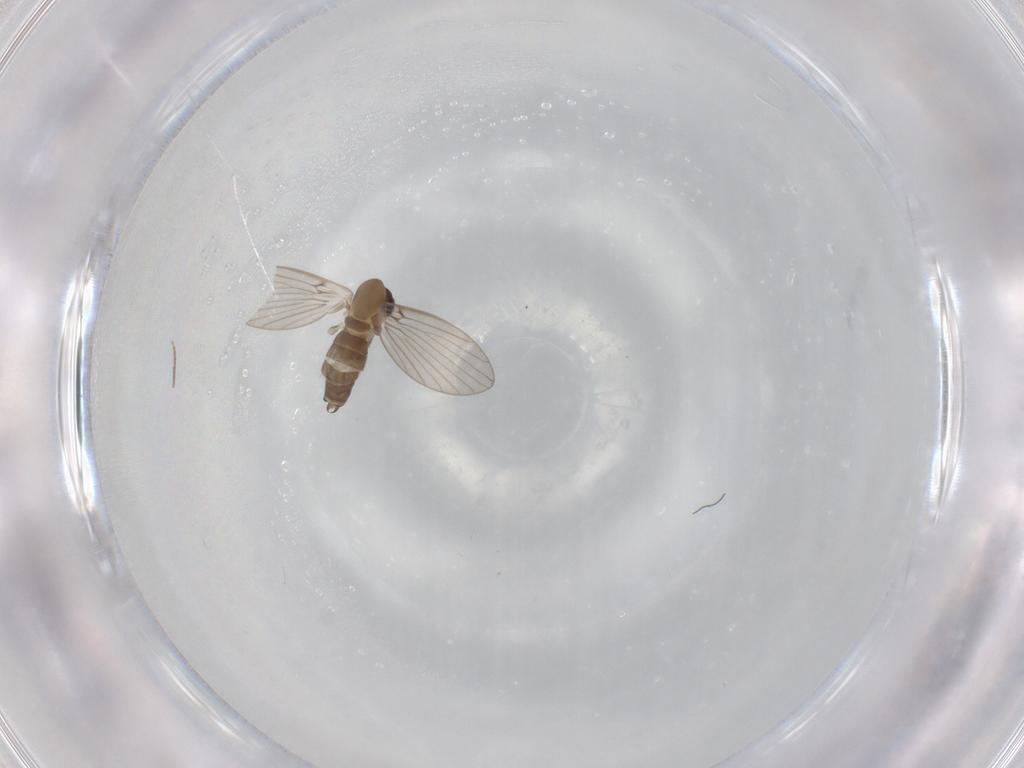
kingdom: Animalia
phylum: Arthropoda
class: Insecta
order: Diptera
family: Psychodidae
